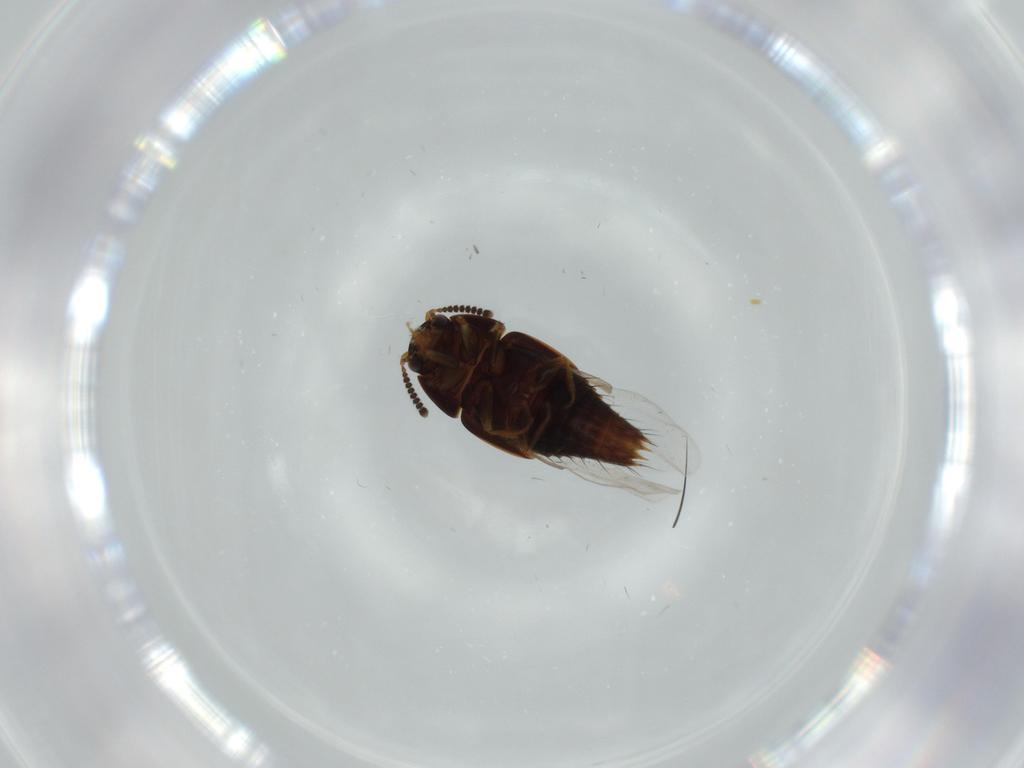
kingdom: Animalia
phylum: Arthropoda
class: Insecta
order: Coleoptera
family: Staphylinidae
